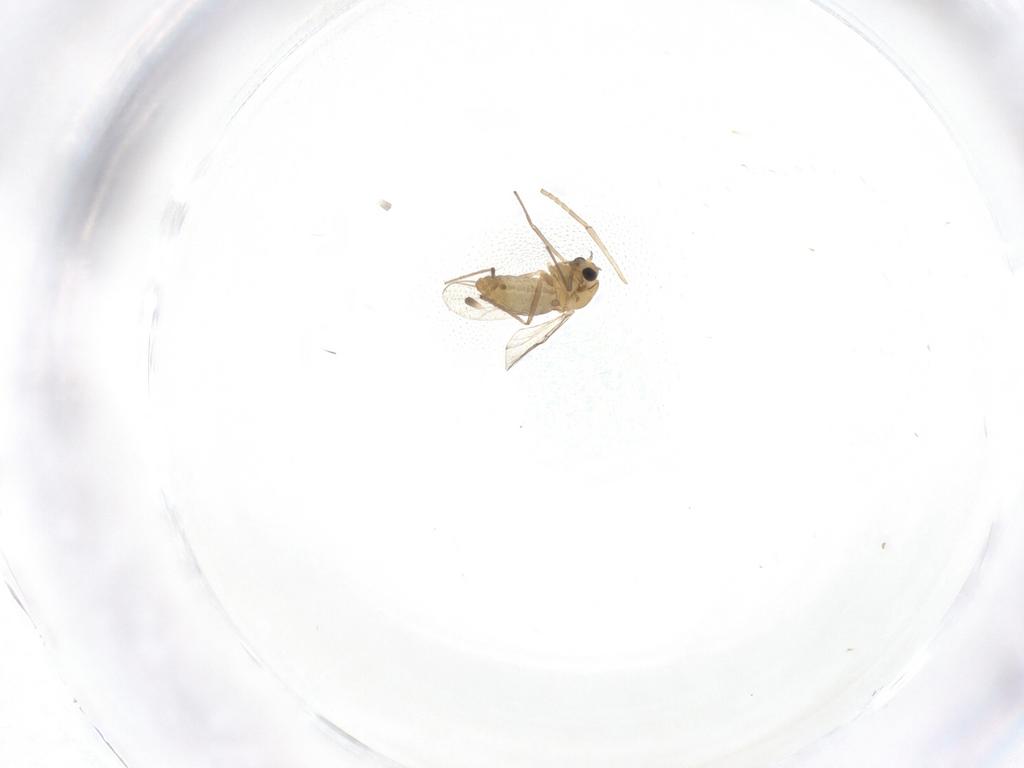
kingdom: Animalia
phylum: Arthropoda
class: Insecta
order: Diptera
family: Chironomidae
